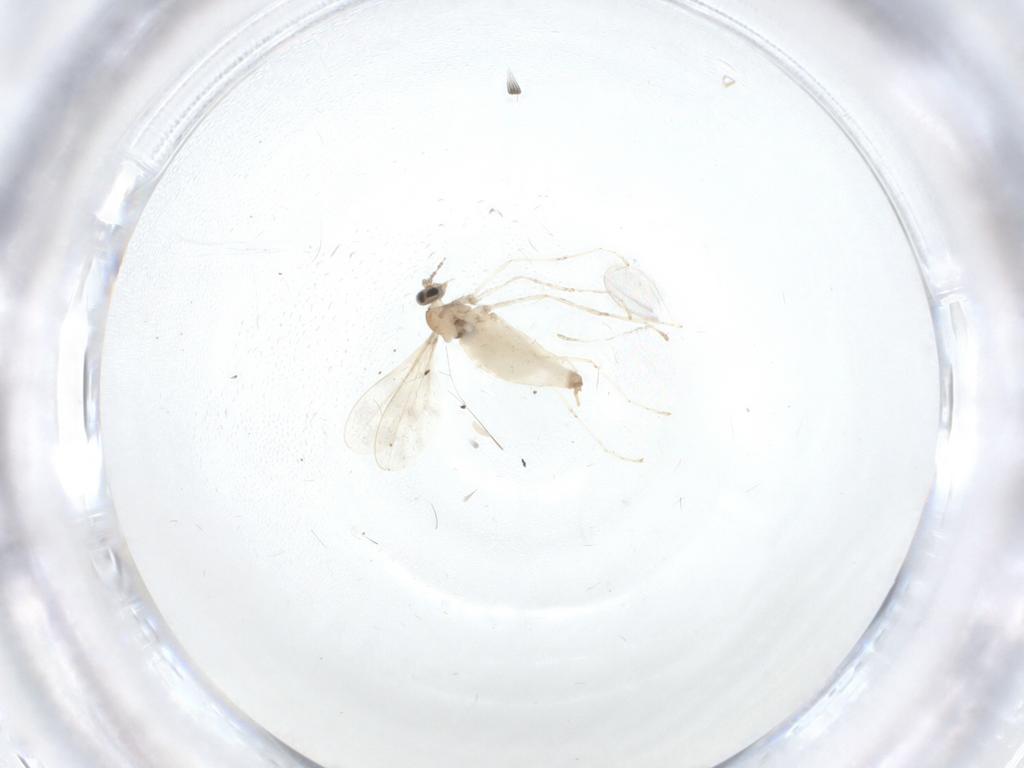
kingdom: Animalia
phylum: Arthropoda
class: Insecta
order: Diptera
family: Cecidomyiidae
